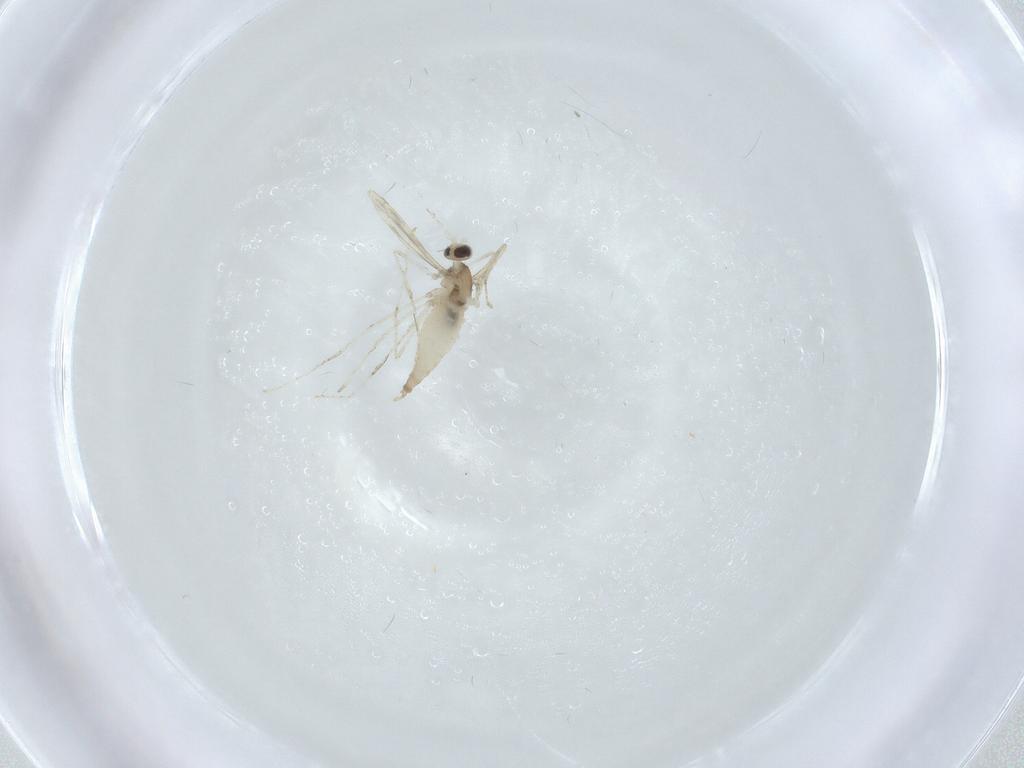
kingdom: Animalia
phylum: Arthropoda
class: Insecta
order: Diptera
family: Cecidomyiidae
